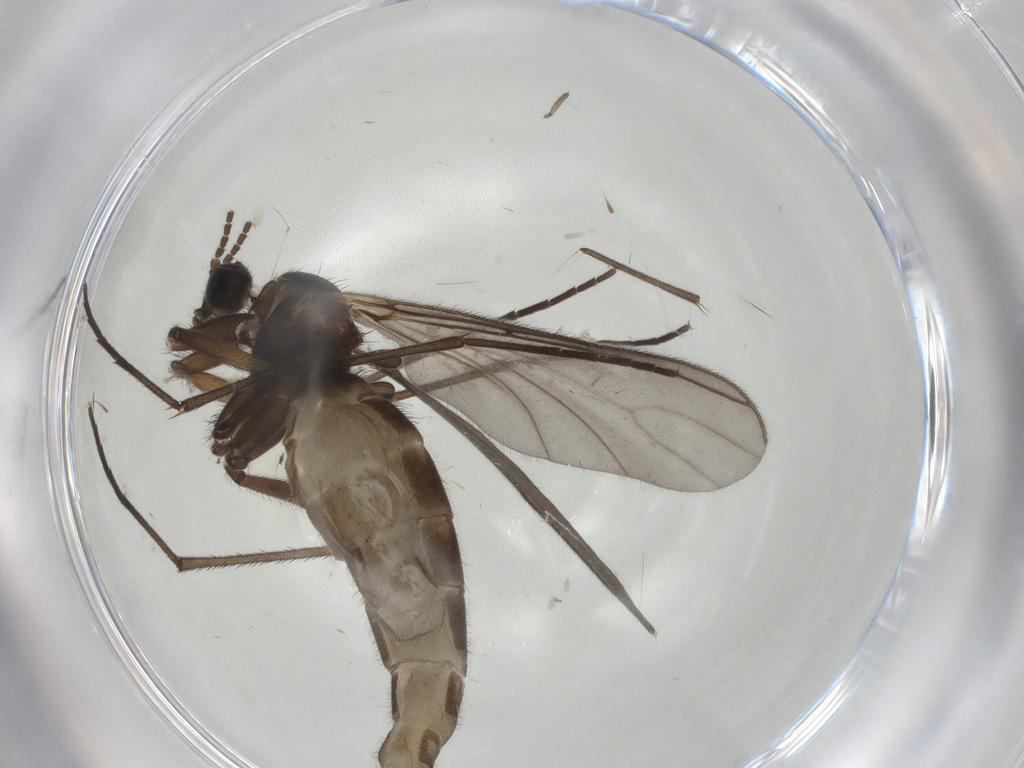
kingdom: Animalia
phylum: Arthropoda
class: Insecta
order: Diptera
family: Sciaridae
